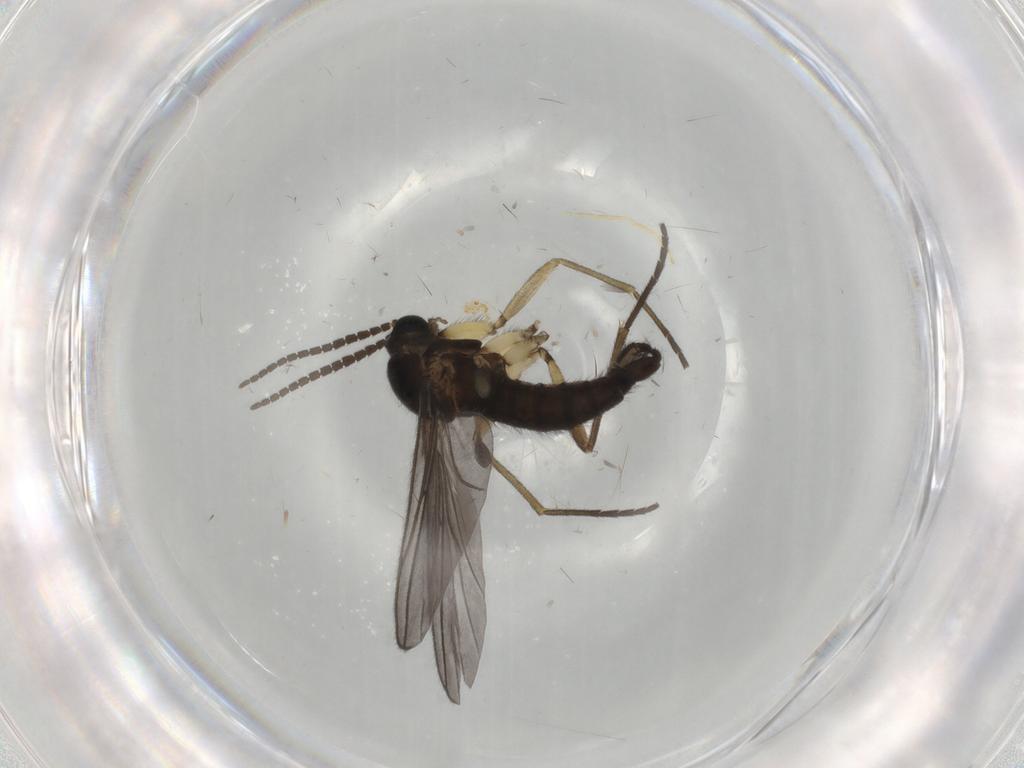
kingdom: Animalia
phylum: Arthropoda
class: Insecta
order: Diptera
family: Sciaridae
